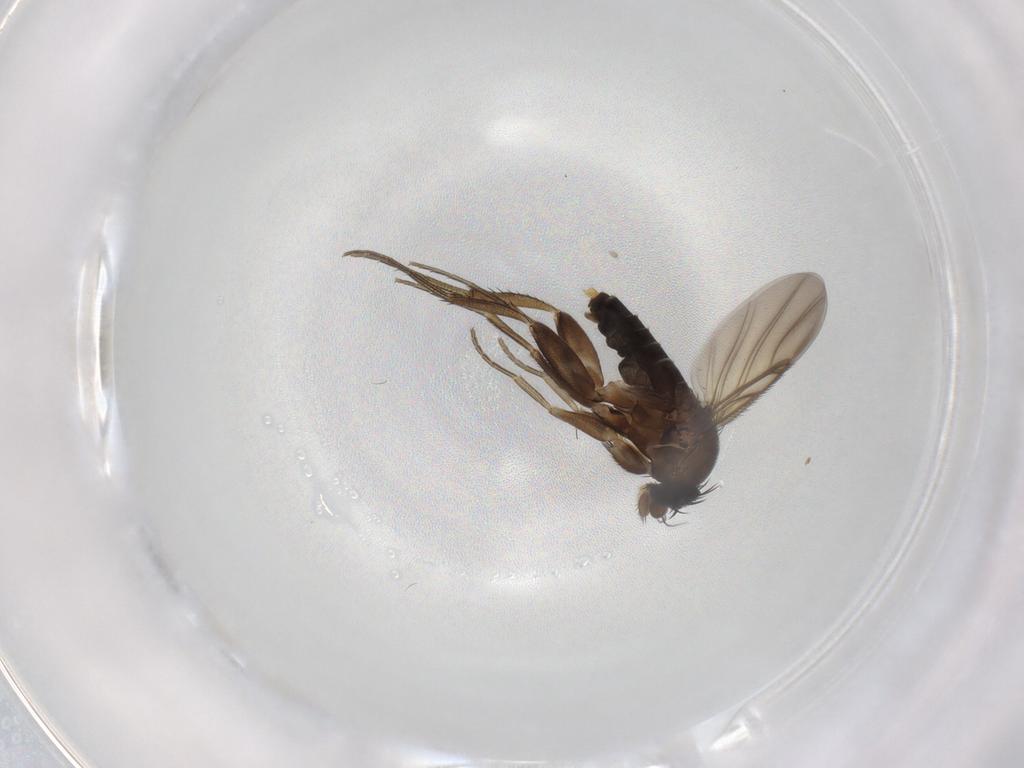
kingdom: Animalia
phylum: Arthropoda
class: Insecta
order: Diptera
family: Phoridae
